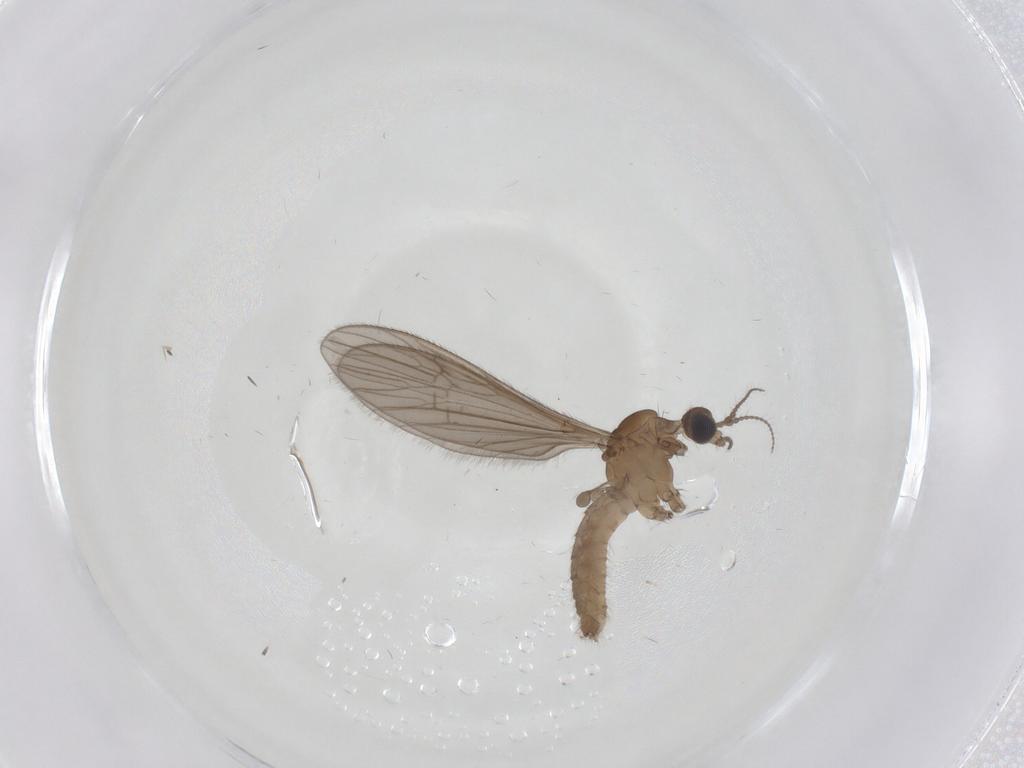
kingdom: Animalia
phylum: Arthropoda
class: Insecta
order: Diptera
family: Limoniidae
